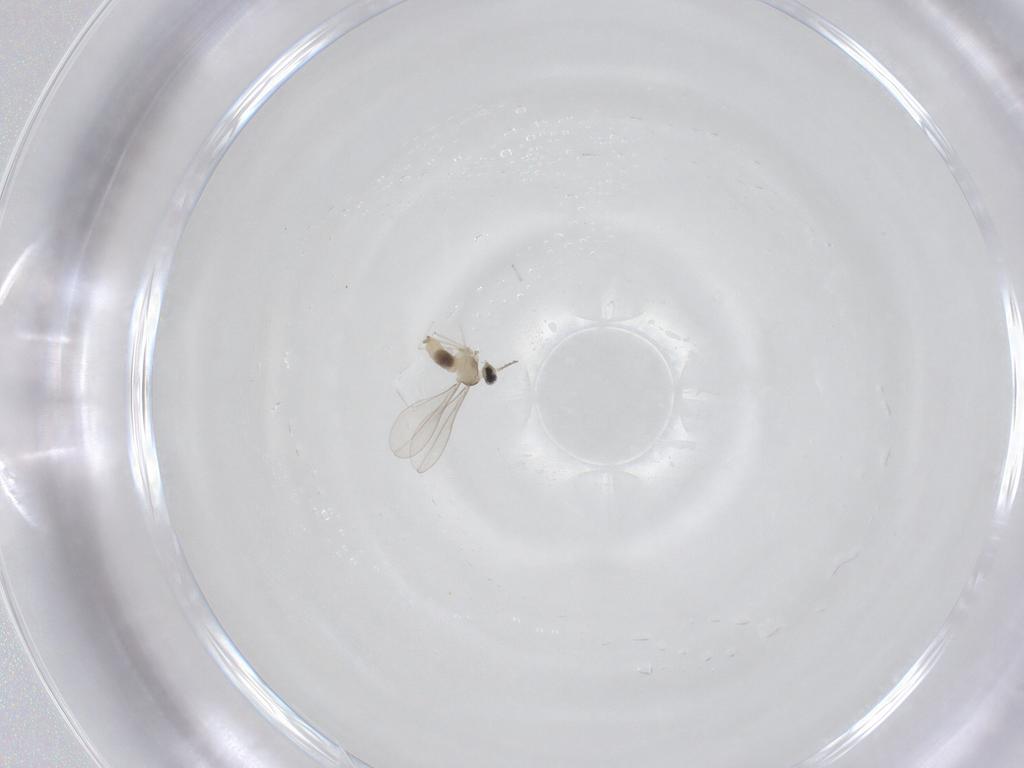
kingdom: Animalia
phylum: Arthropoda
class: Insecta
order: Diptera
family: Cecidomyiidae
